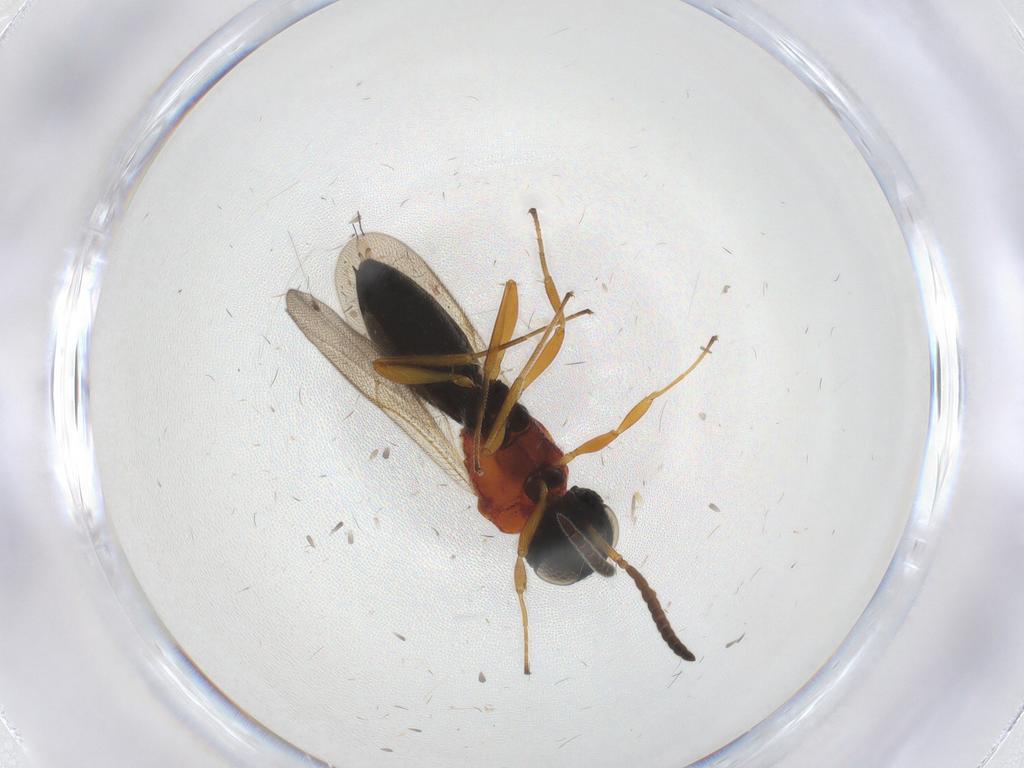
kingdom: Animalia
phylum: Arthropoda
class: Insecta
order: Hymenoptera
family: Scelionidae
